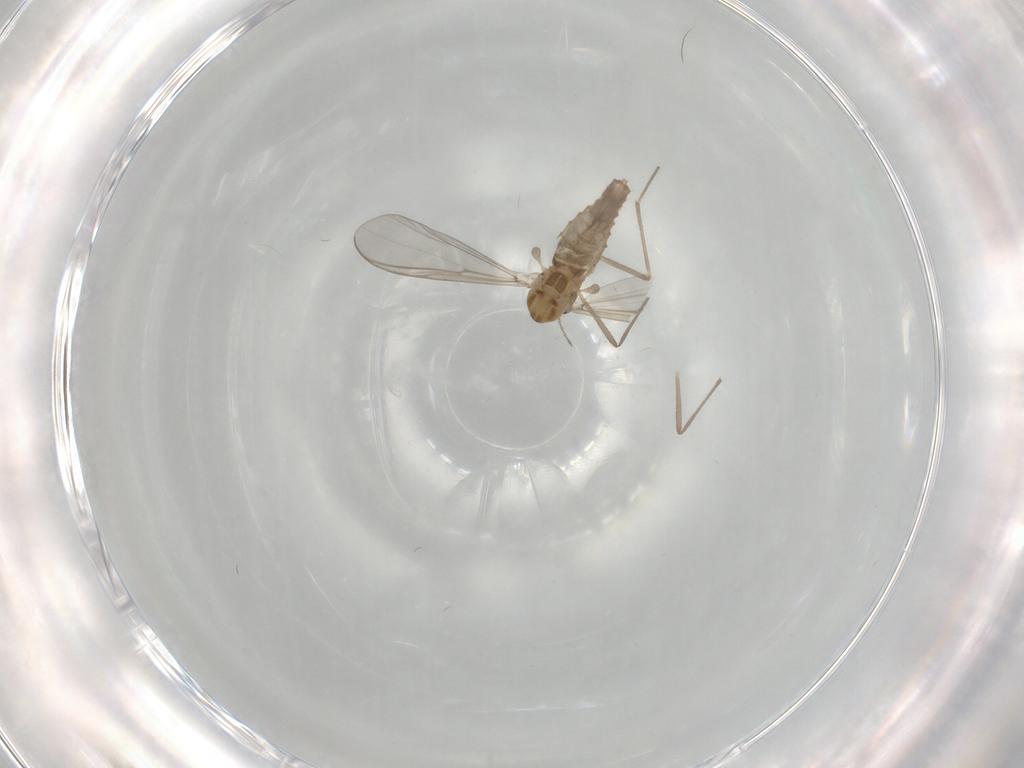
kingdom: Animalia
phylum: Arthropoda
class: Insecta
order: Diptera
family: Chironomidae
